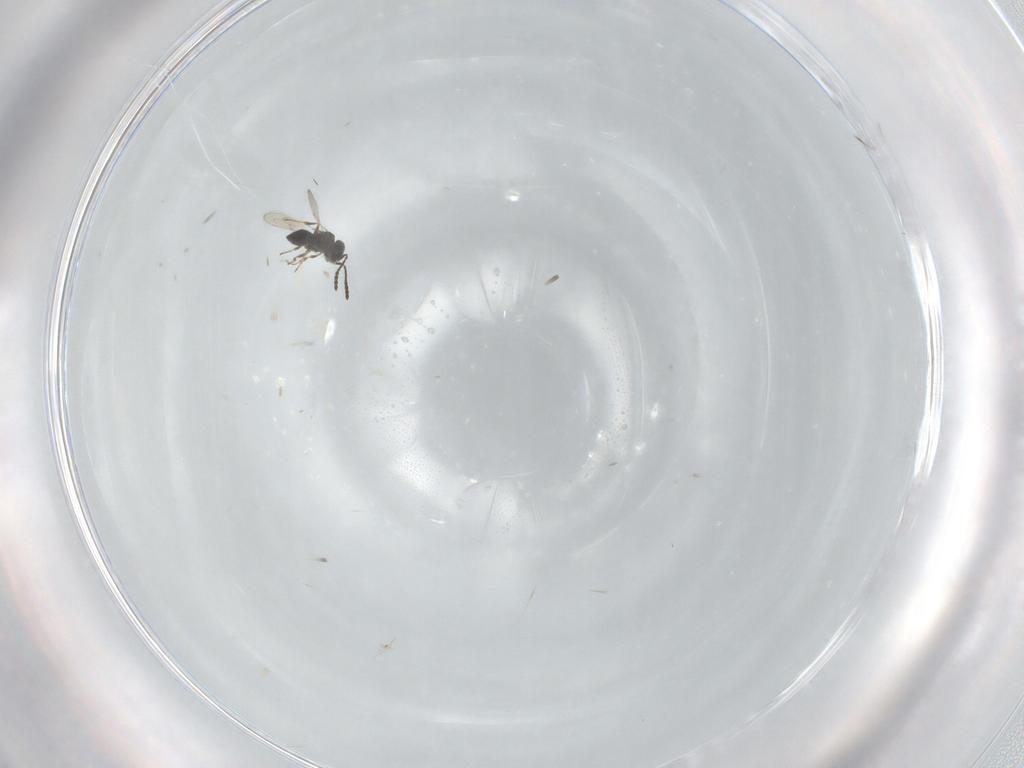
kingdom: Animalia
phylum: Arthropoda
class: Insecta
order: Hymenoptera
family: Scelionidae
